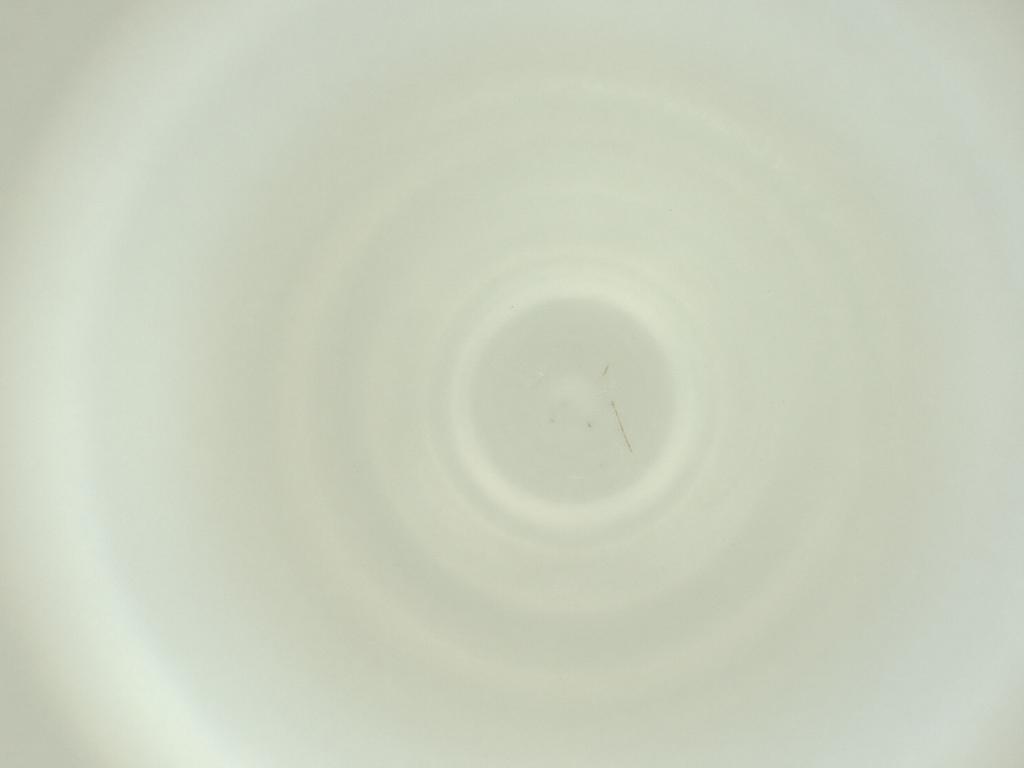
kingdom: Animalia
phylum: Arthropoda
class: Insecta
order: Diptera
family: Cecidomyiidae
